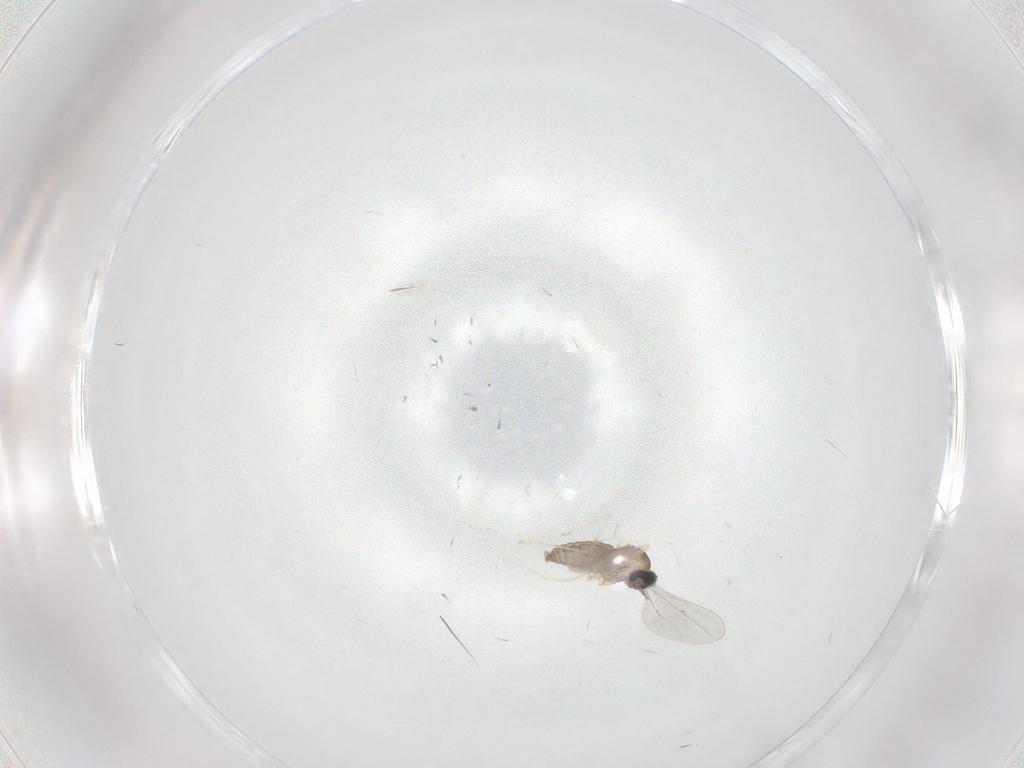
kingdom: Animalia
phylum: Arthropoda
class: Insecta
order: Diptera
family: Cecidomyiidae
